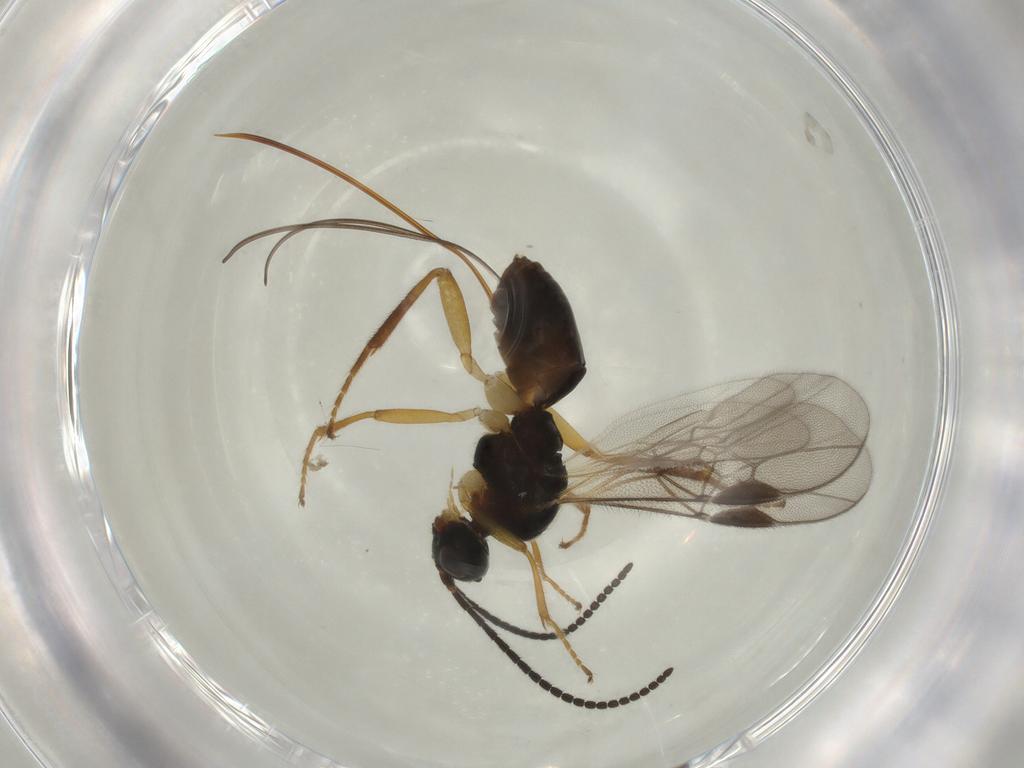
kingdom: Animalia
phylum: Arthropoda
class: Insecta
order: Hymenoptera
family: Braconidae
